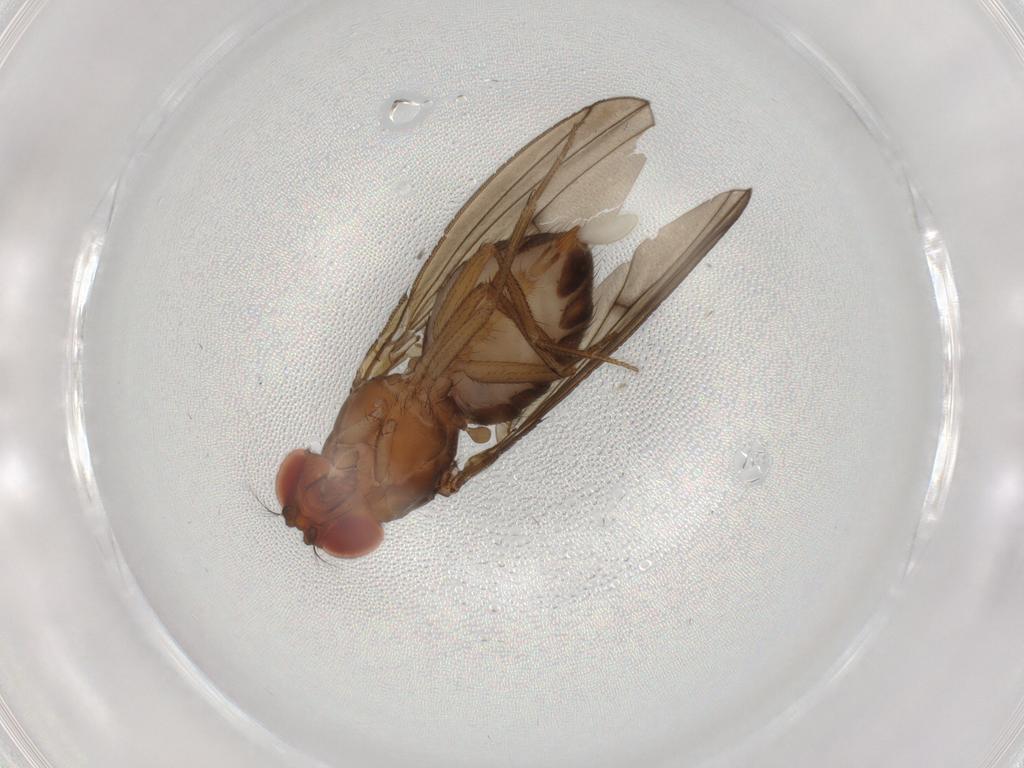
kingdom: Animalia
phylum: Arthropoda
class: Insecta
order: Diptera
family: Drosophilidae
